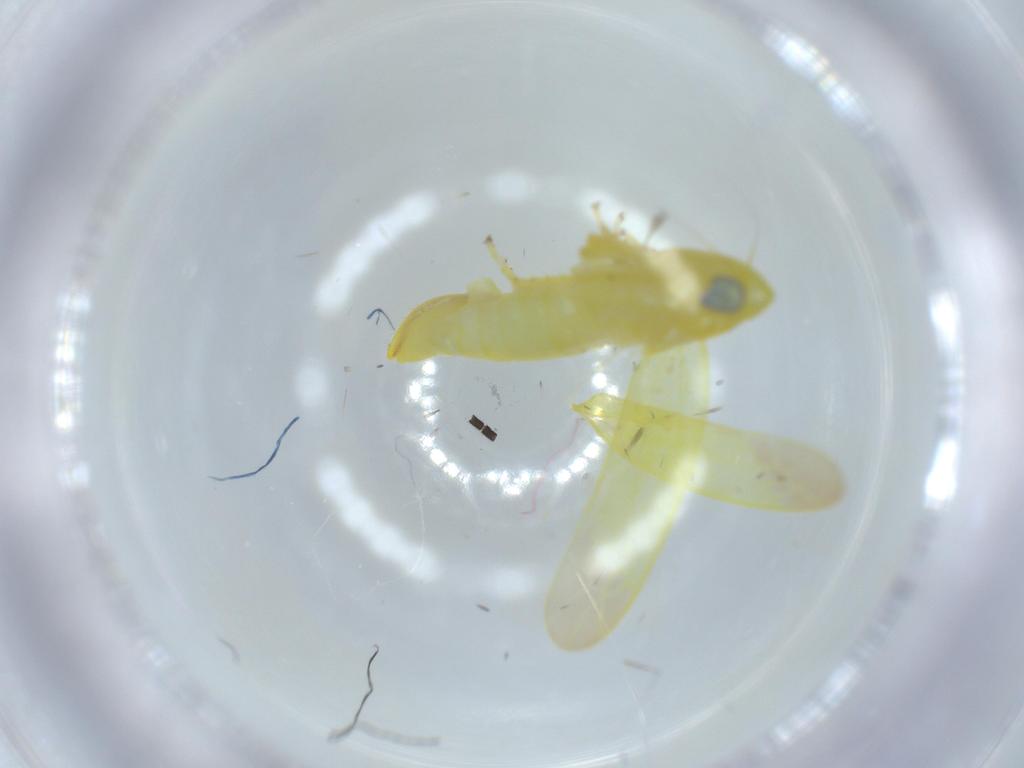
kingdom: Animalia
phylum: Arthropoda
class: Insecta
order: Hemiptera
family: Cicadellidae
